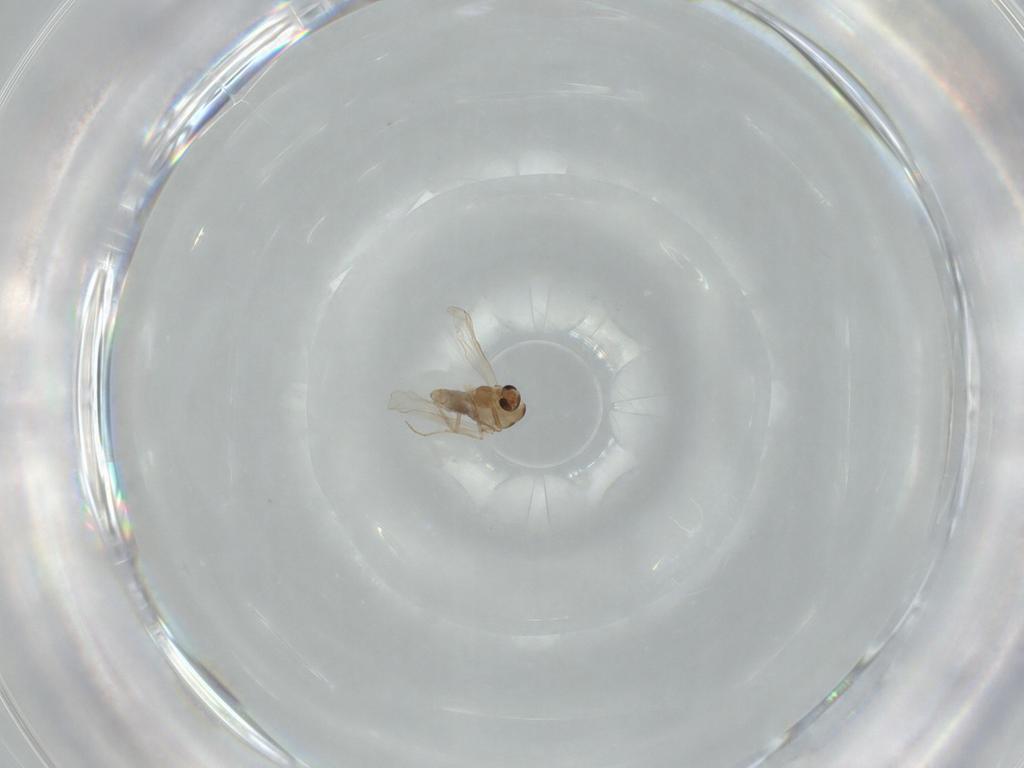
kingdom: Animalia
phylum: Arthropoda
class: Insecta
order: Diptera
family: Chironomidae
